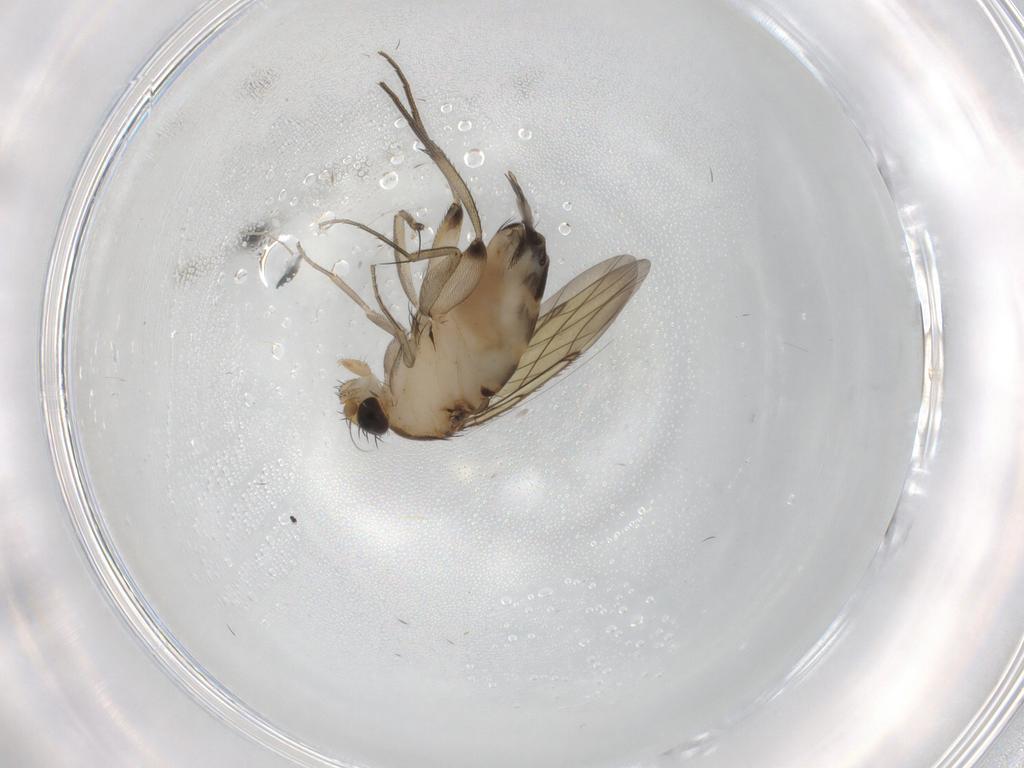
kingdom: Animalia
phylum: Arthropoda
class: Insecta
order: Diptera
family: Phoridae
